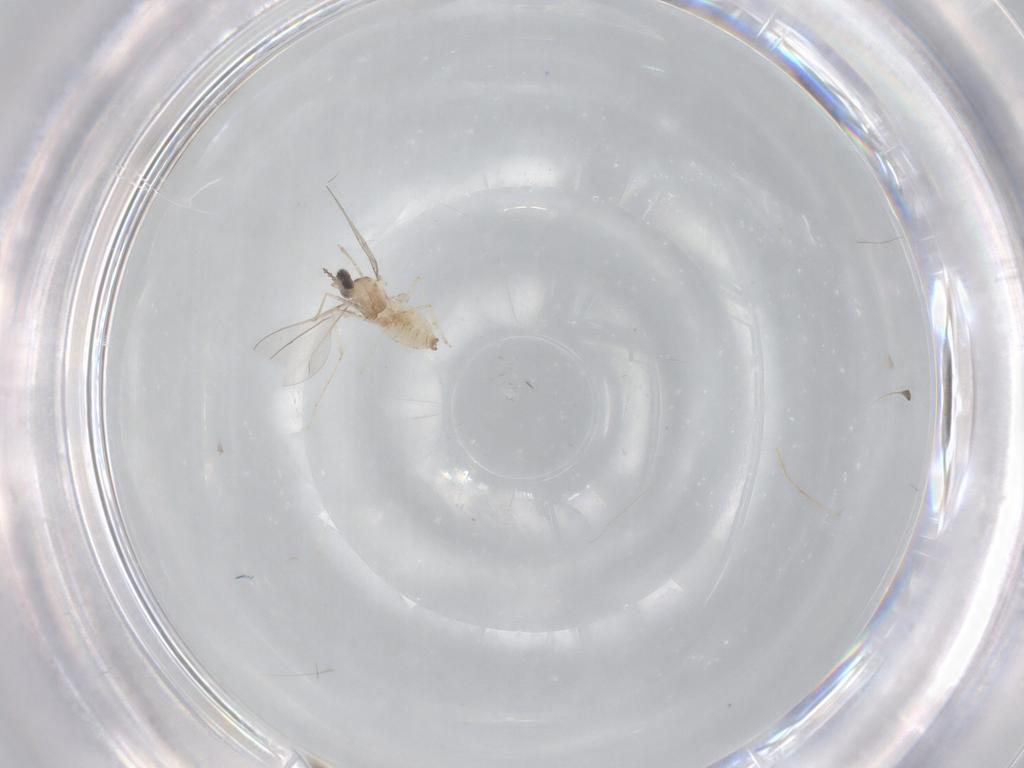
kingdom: Animalia
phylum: Arthropoda
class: Insecta
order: Diptera
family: Cecidomyiidae
